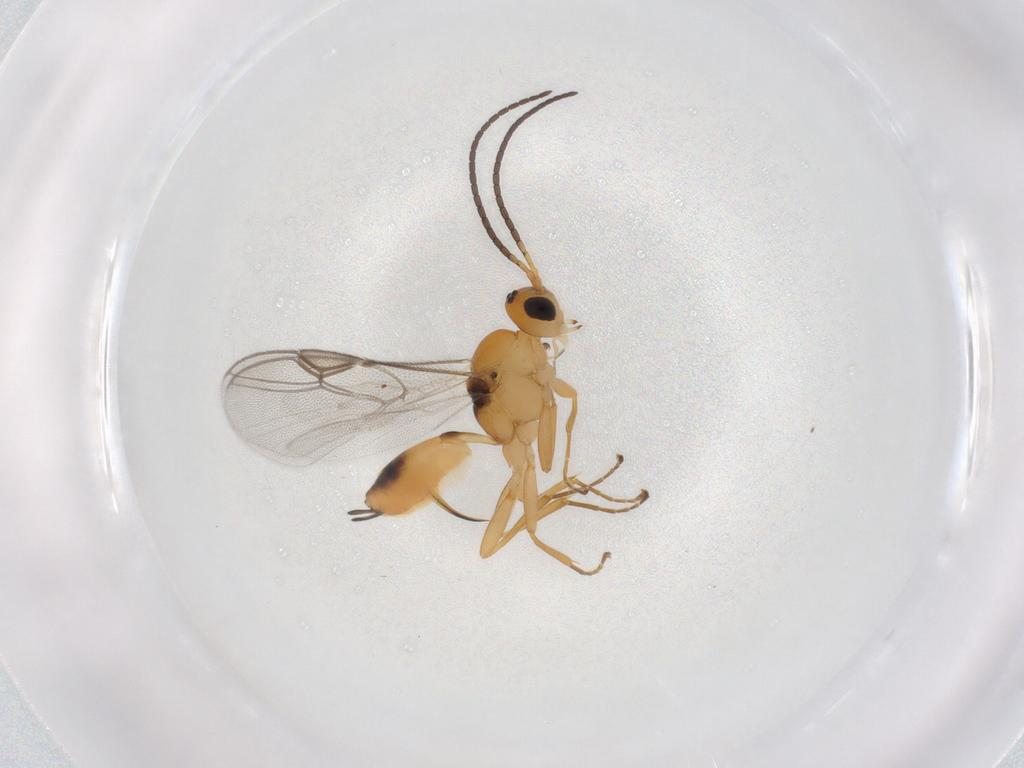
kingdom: Animalia
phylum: Arthropoda
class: Insecta
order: Hymenoptera
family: Braconidae
